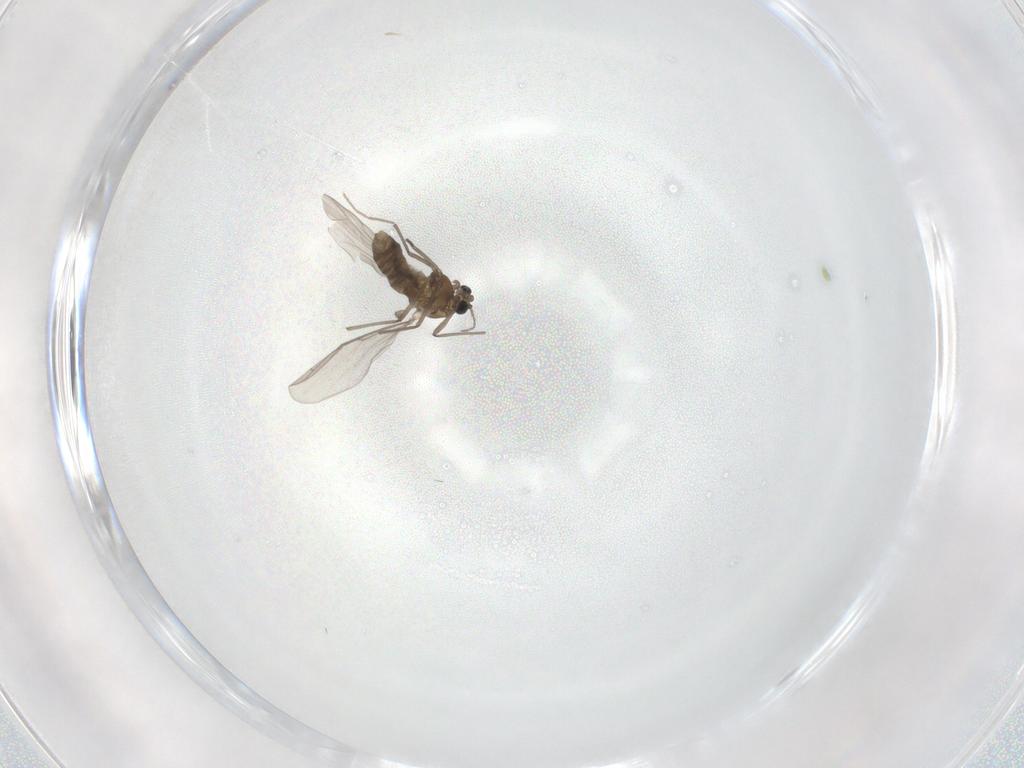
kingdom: Animalia
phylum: Arthropoda
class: Insecta
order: Diptera
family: Chironomidae
